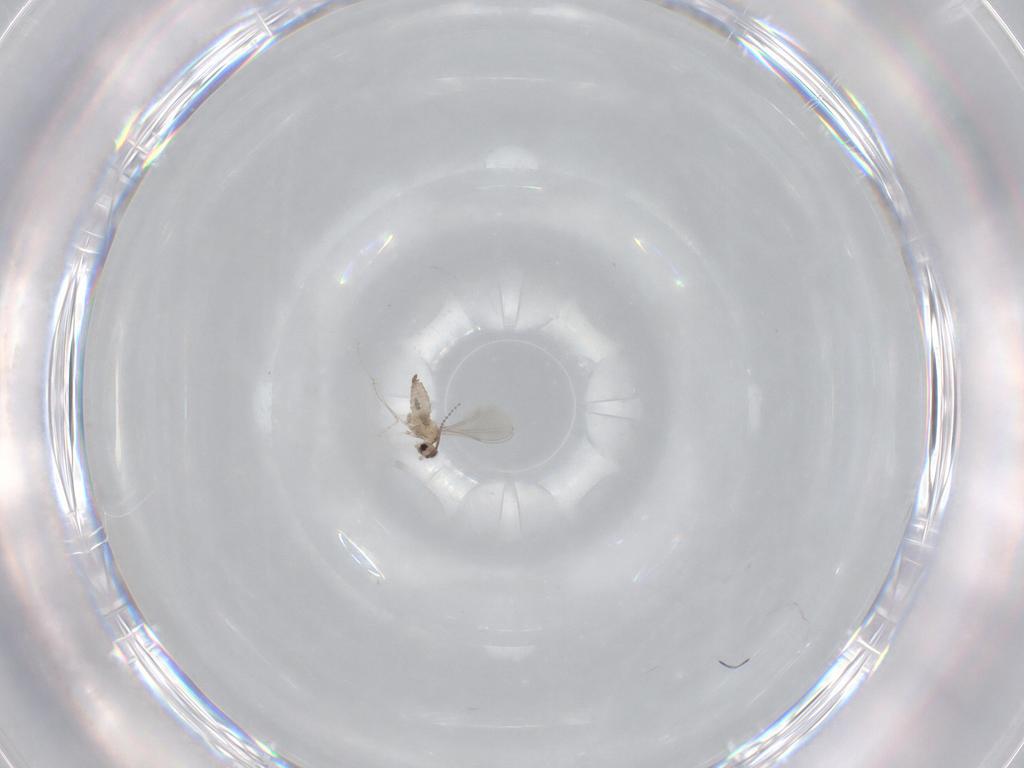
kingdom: Animalia
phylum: Arthropoda
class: Insecta
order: Diptera
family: Cecidomyiidae
